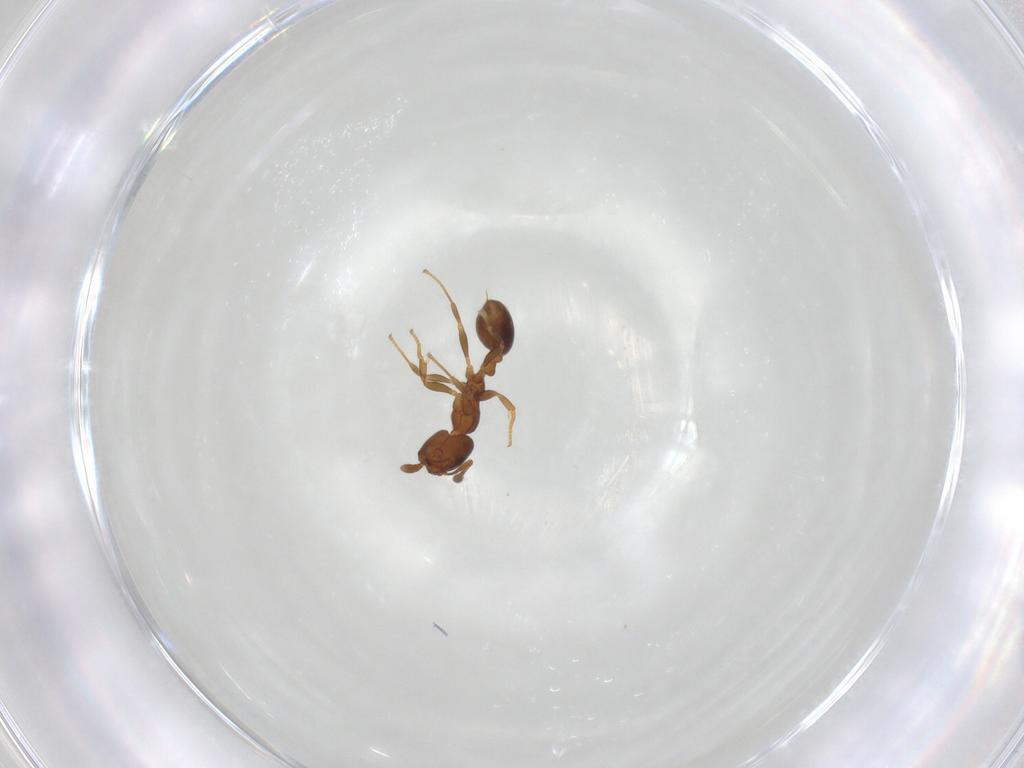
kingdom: Animalia
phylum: Arthropoda
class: Insecta
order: Hymenoptera
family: Formicidae
